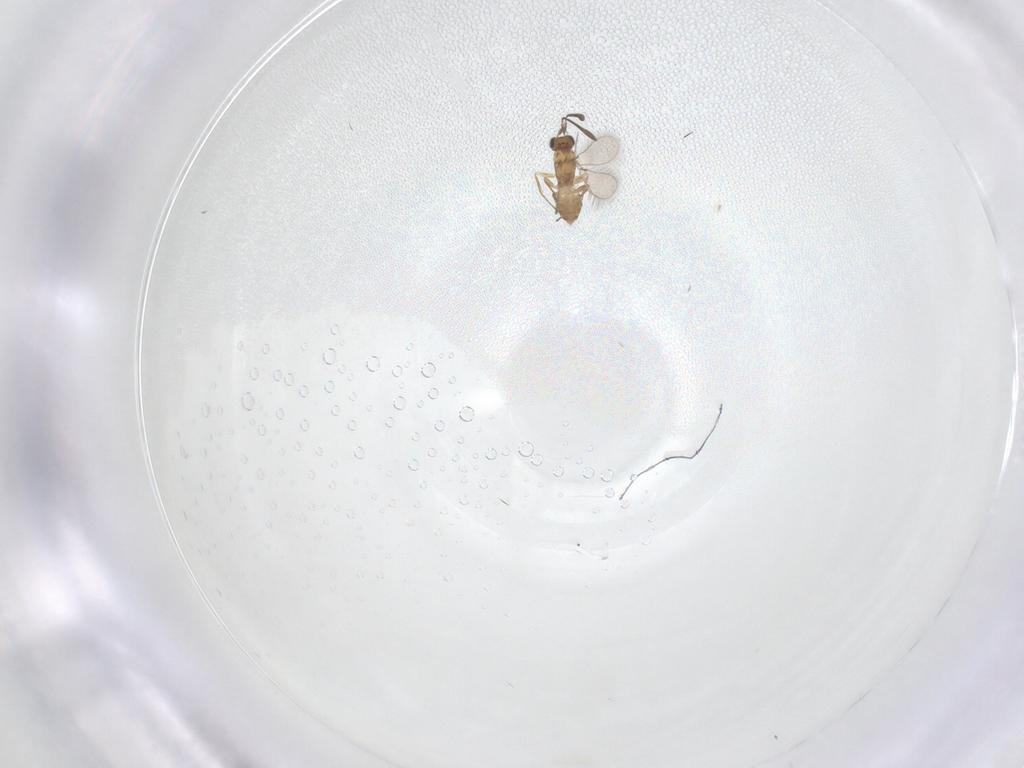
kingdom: Animalia
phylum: Arthropoda
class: Insecta
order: Hymenoptera
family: Mymaridae
